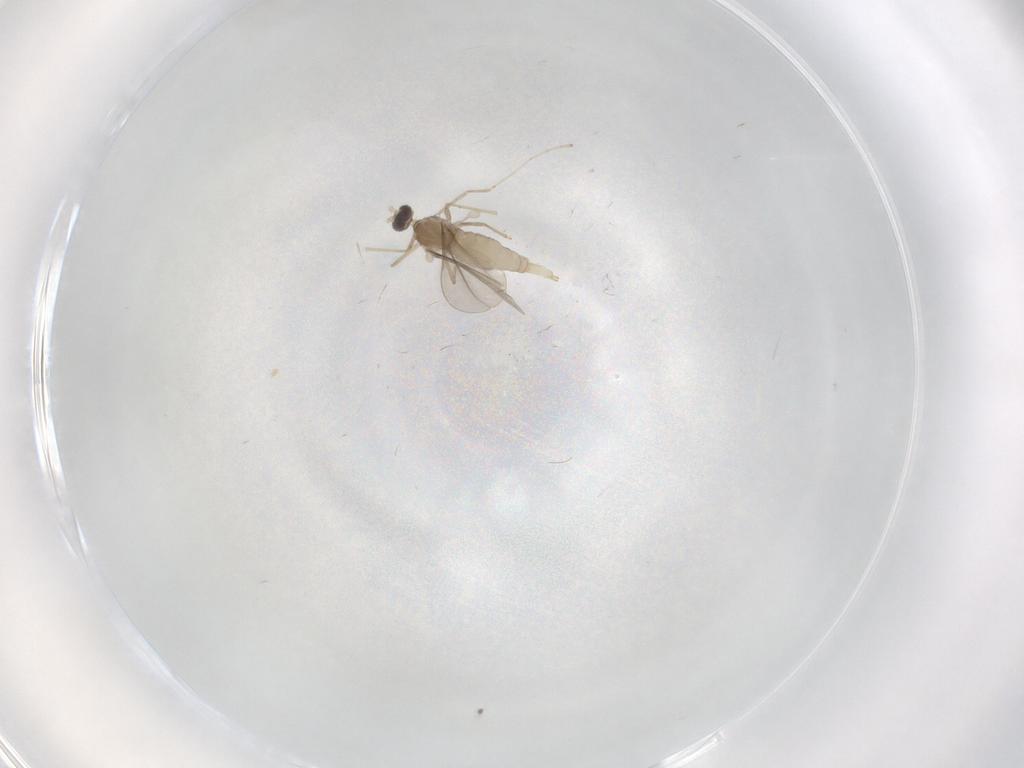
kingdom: Animalia
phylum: Arthropoda
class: Insecta
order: Diptera
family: Cecidomyiidae
